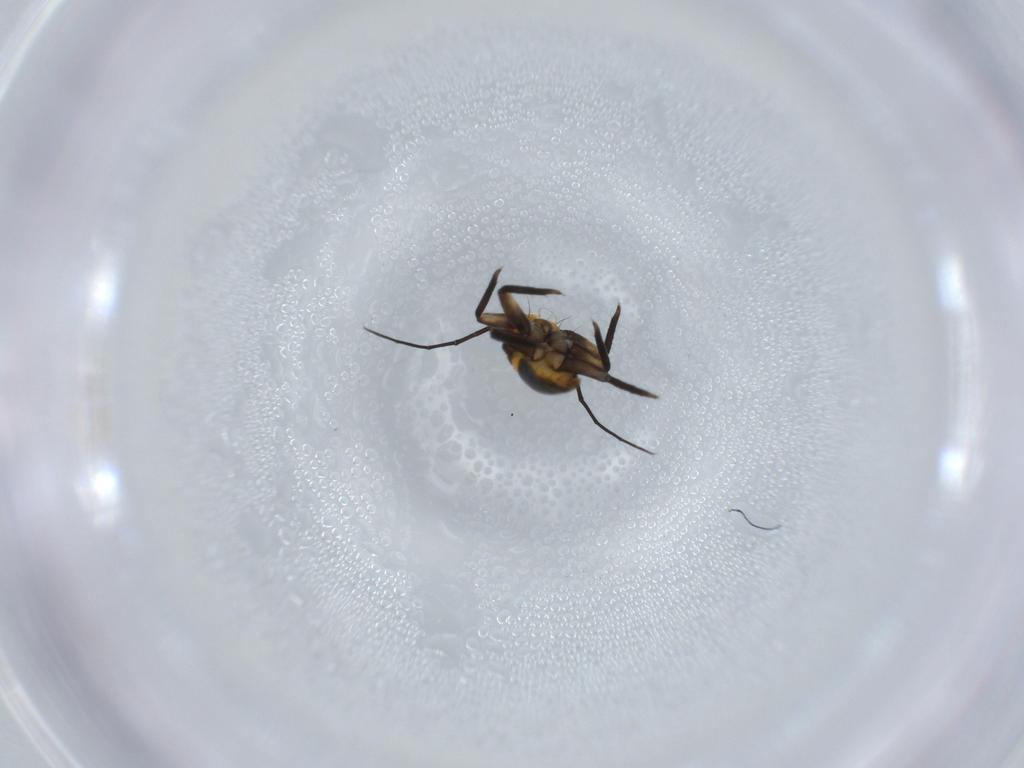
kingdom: Animalia
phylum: Arthropoda
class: Insecta
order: Hemiptera
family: Psyllidae
